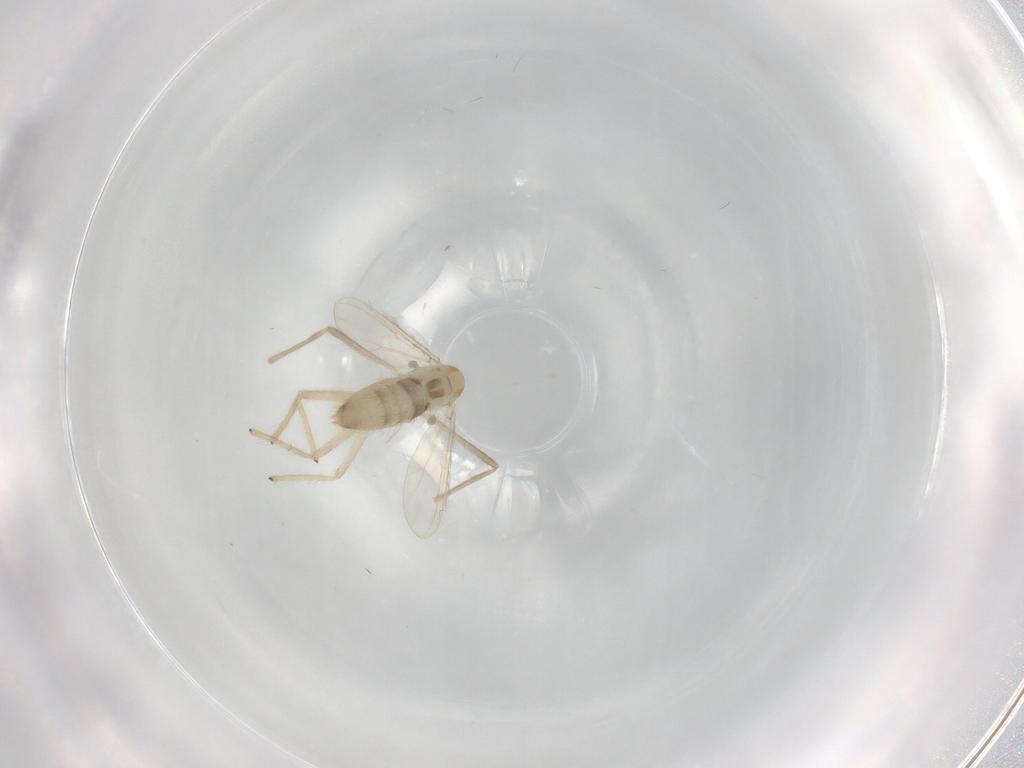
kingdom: Animalia
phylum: Arthropoda
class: Insecta
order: Diptera
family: Chironomidae
